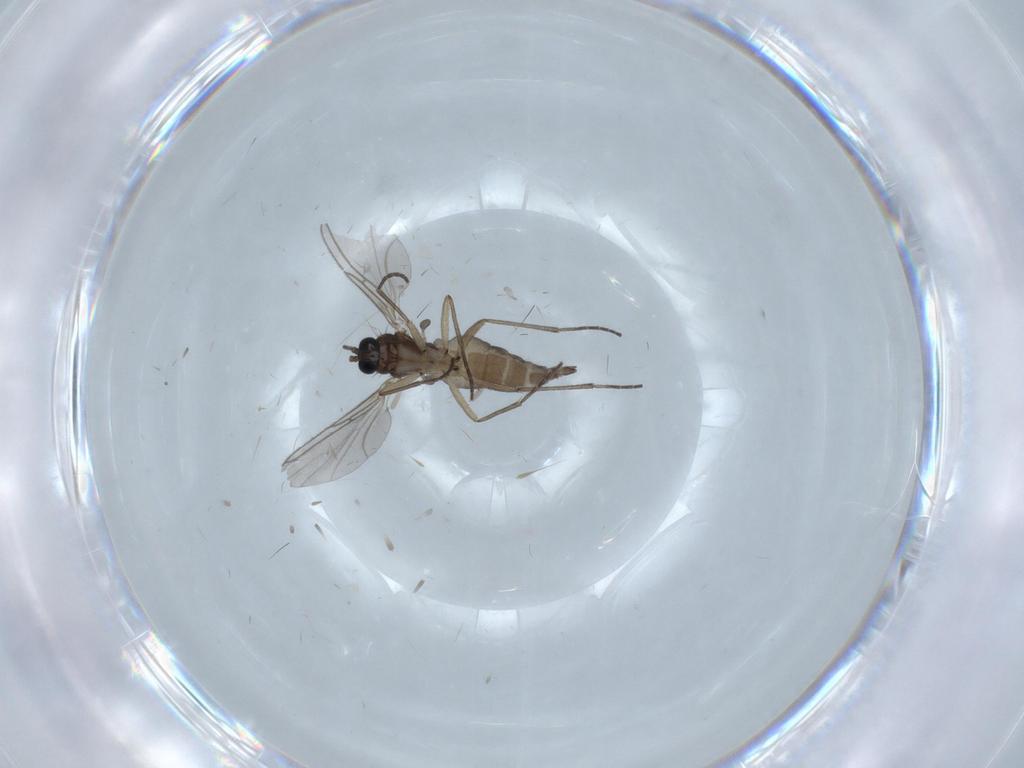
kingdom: Animalia
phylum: Arthropoda
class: Insecta
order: Diptera
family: Sciaridae
